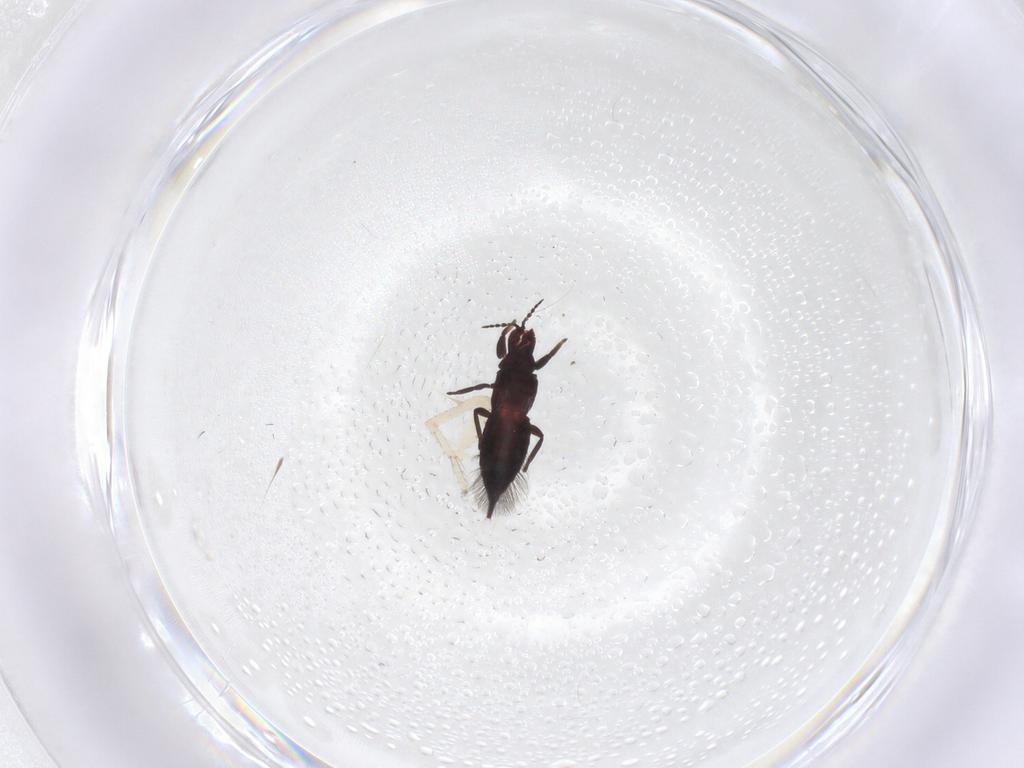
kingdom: Animalia
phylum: Arthropoda
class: Insecta
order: Thysanoptera
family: Phlaeothripidae
